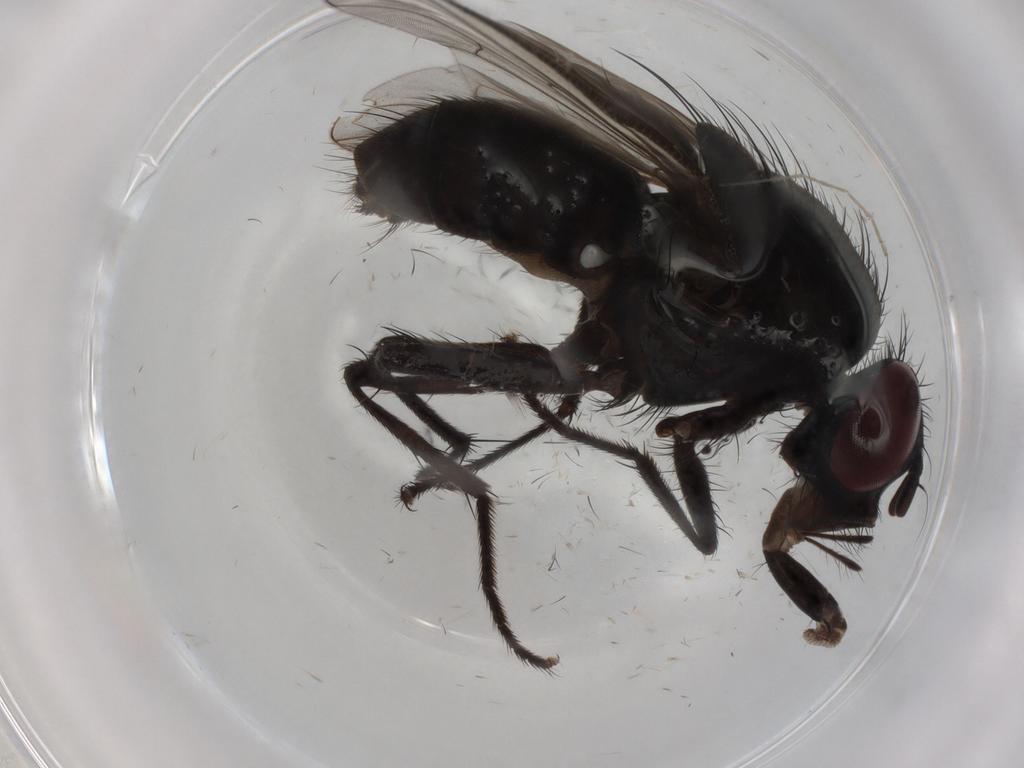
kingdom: Animalia
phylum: Arthropoda
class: Insecta
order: Diptera
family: Muscidae
